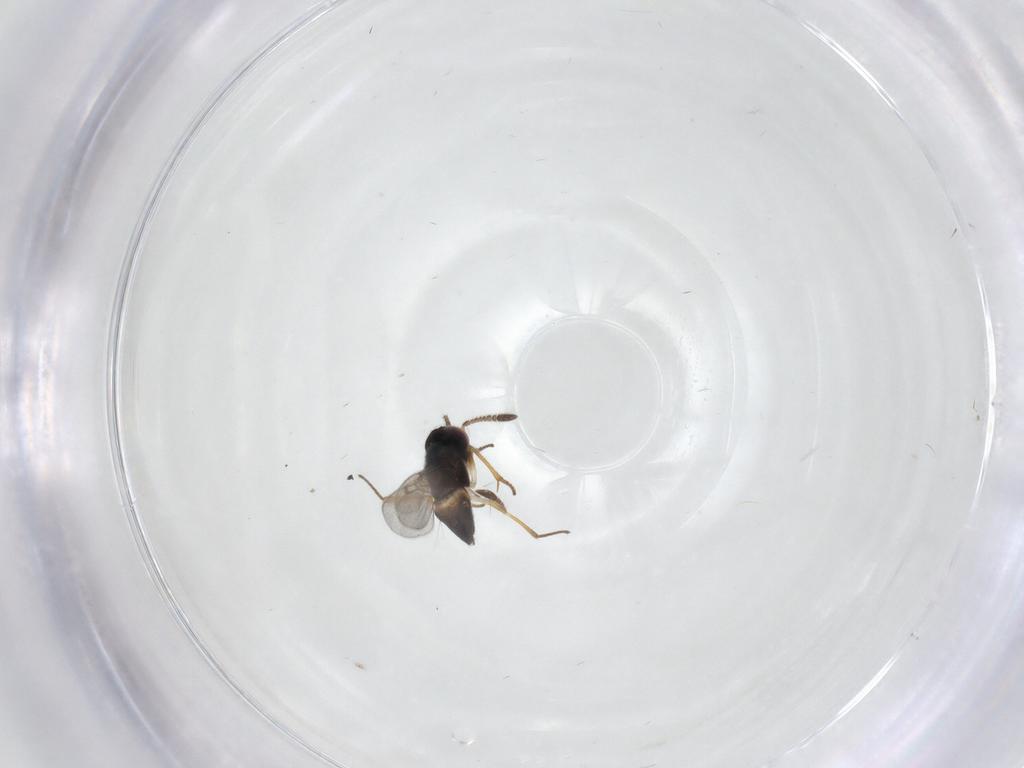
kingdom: Animalia
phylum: Arthropoda
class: Insecta
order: Hymenoptera
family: Encyrtidae
